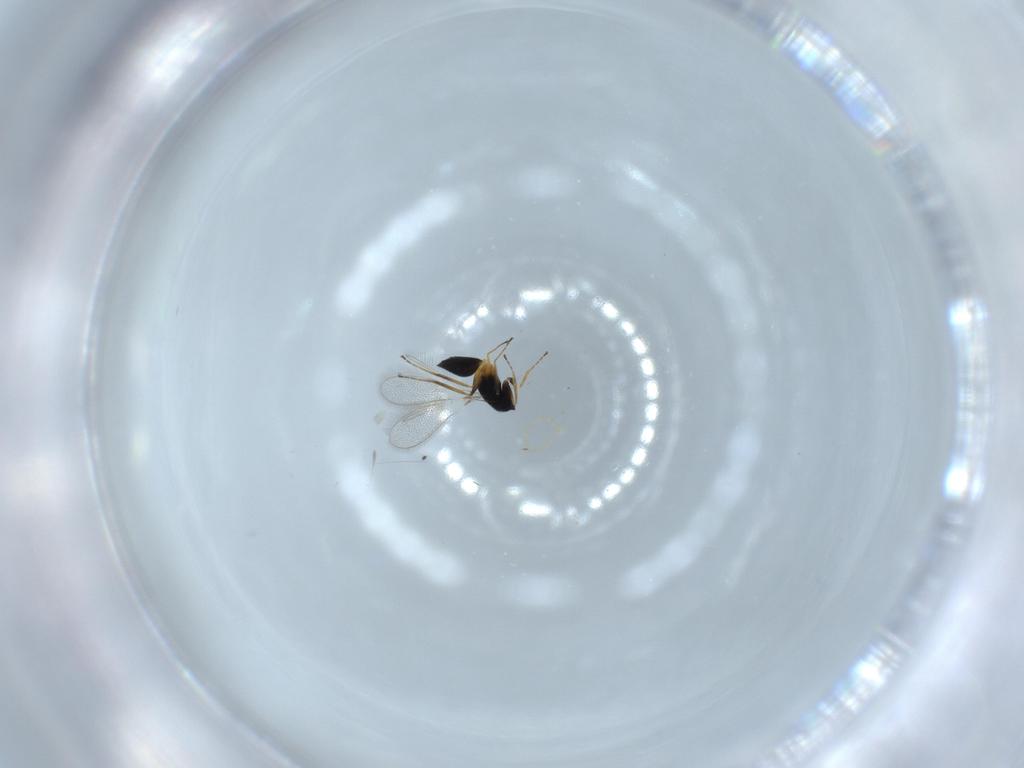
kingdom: Animalia
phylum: Arthropoda
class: Insecta
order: Hymenoptera
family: Mymaridae
